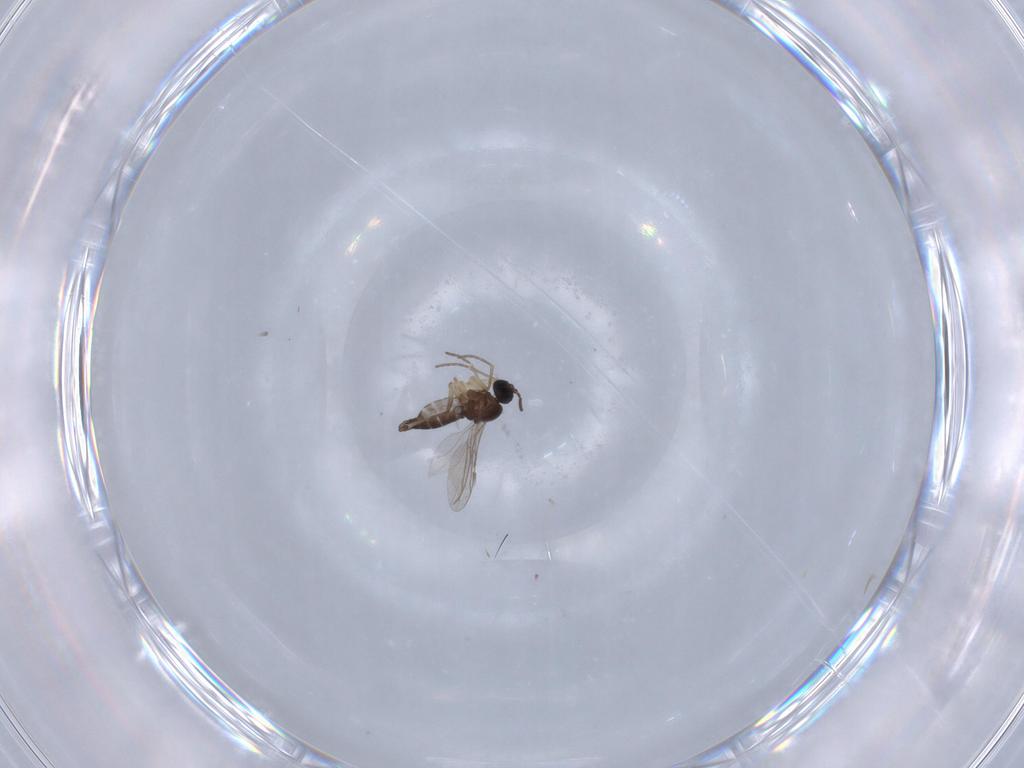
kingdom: Animalia
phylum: Arthropoda
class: Insecta
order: Diptera
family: Sciaridae
